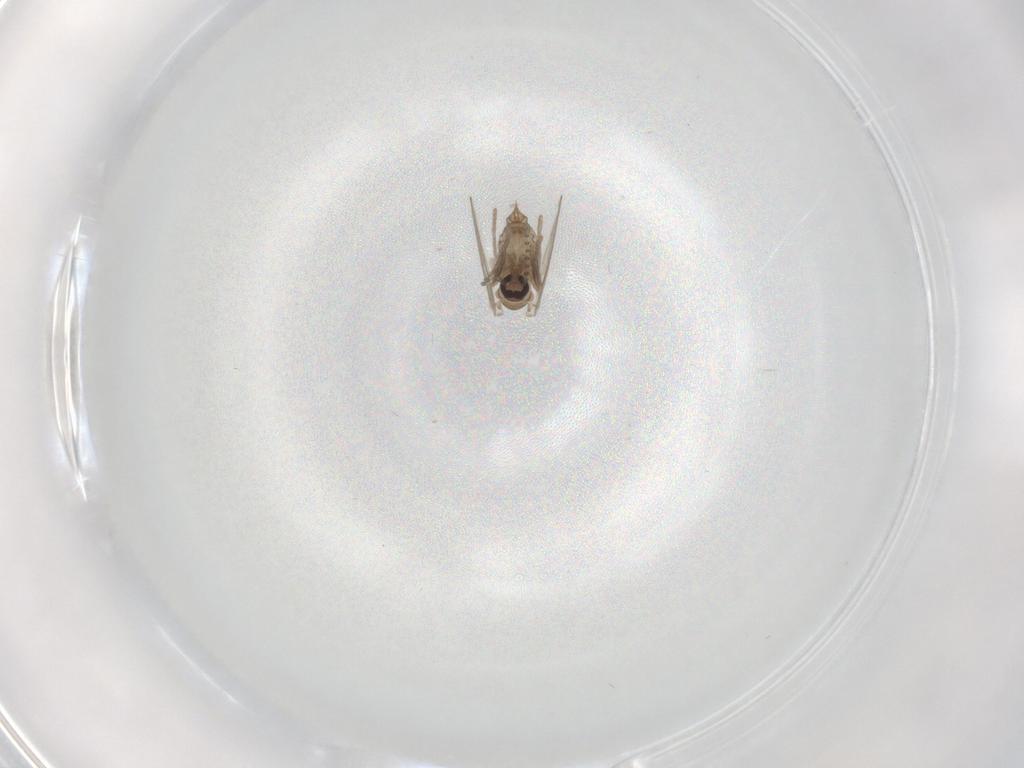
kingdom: Animalia
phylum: Arthropoda
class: Insecta
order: Diptera
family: Psychodidae
